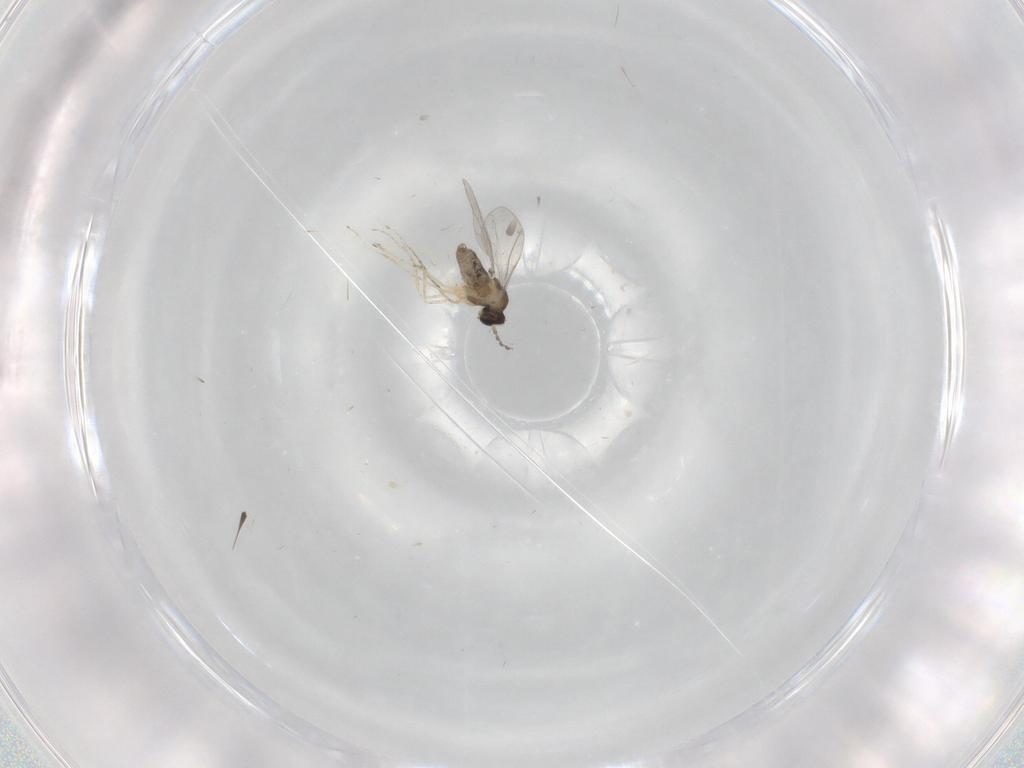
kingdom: Animalia
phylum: Arthropoda
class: Insecta
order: Diptera
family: Cecidomyiidae
